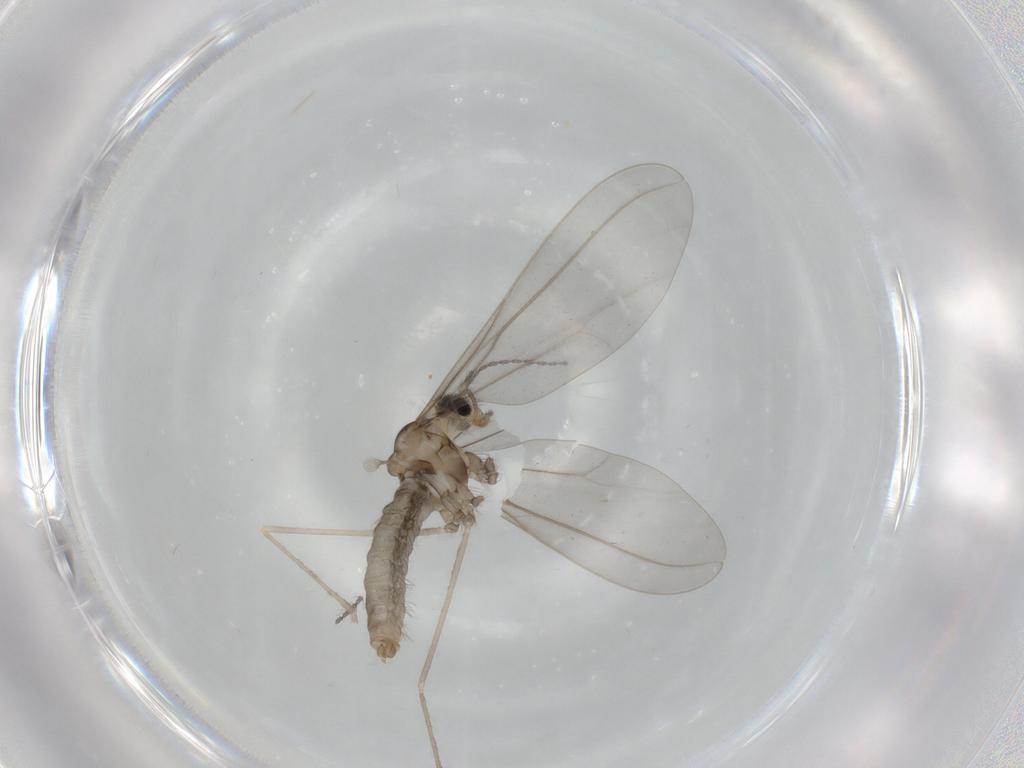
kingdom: Animalia
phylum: Arthropoda
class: Insecta
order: Diptera
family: Cecidomyiidae
